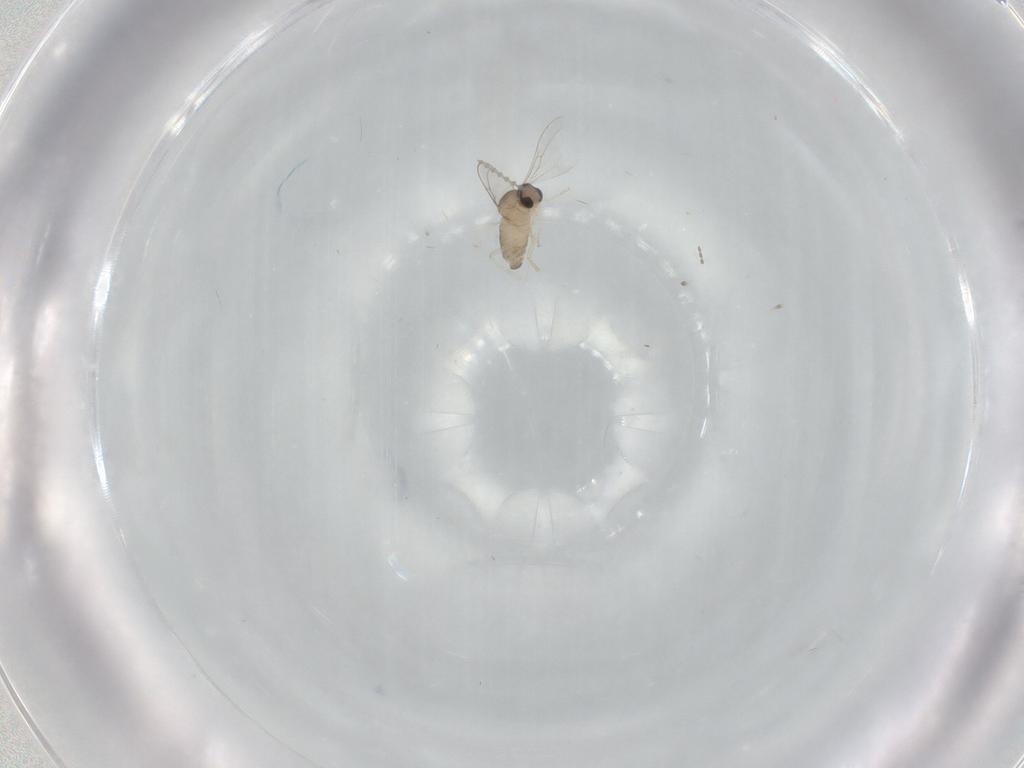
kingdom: Animalia
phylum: Arthropoda
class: Insecta
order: Diptera
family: Cecidomyiidae
